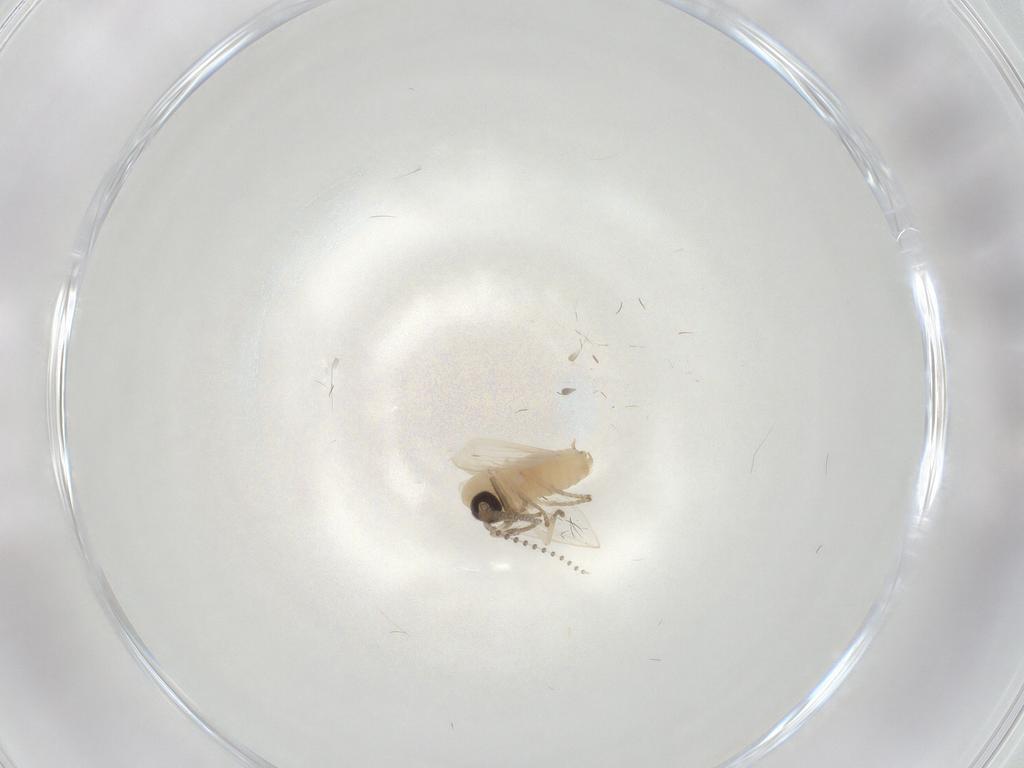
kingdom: Animalia
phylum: Arthropoda
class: Insecta
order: Diptera
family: Psychodidae
